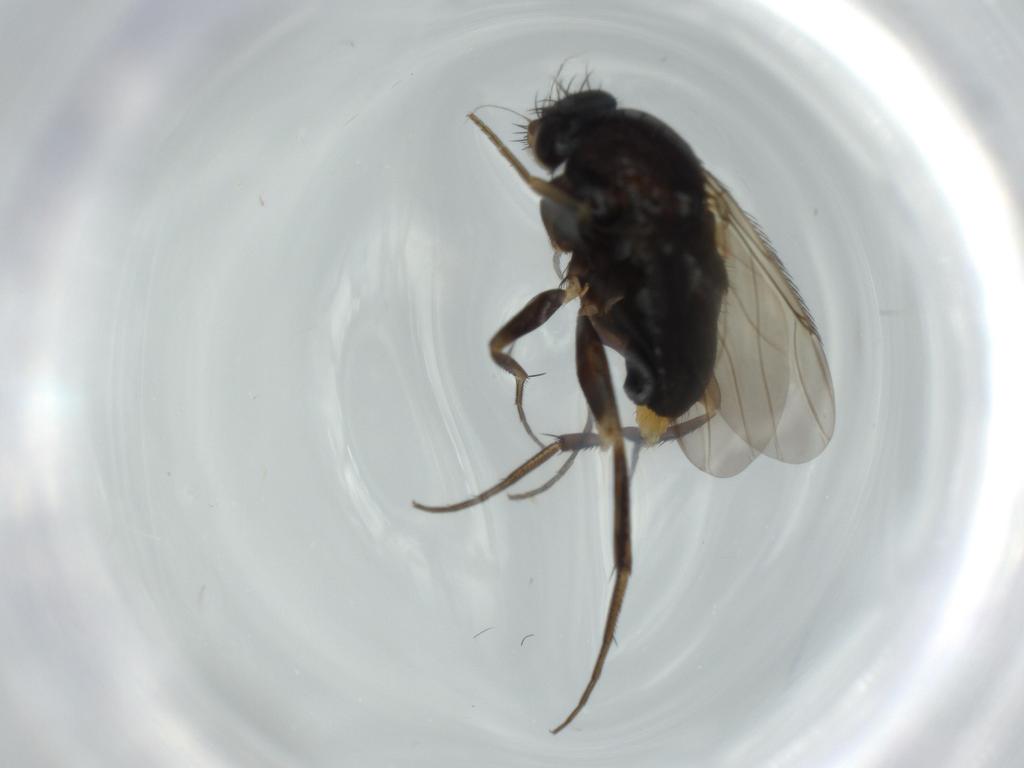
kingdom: Animalia
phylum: Arthropoda
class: Insecta
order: Diptera
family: Phoridae
